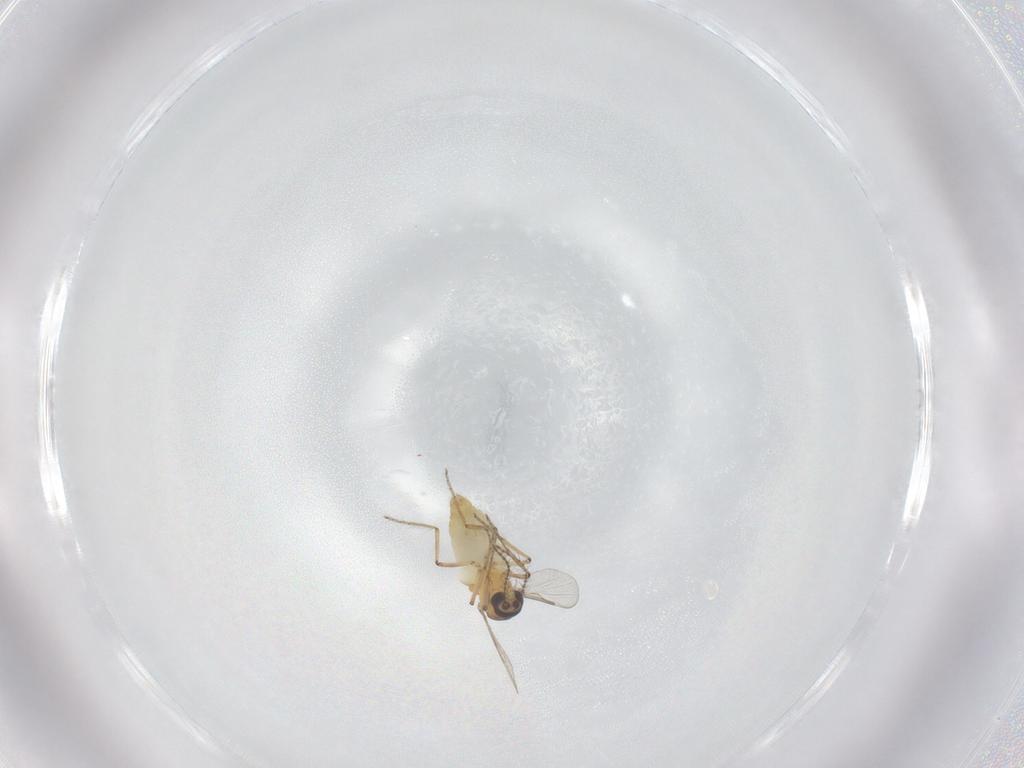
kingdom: Animalia
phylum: Arthropoda
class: Insecta
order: Diptera
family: Ceratopogonidae
